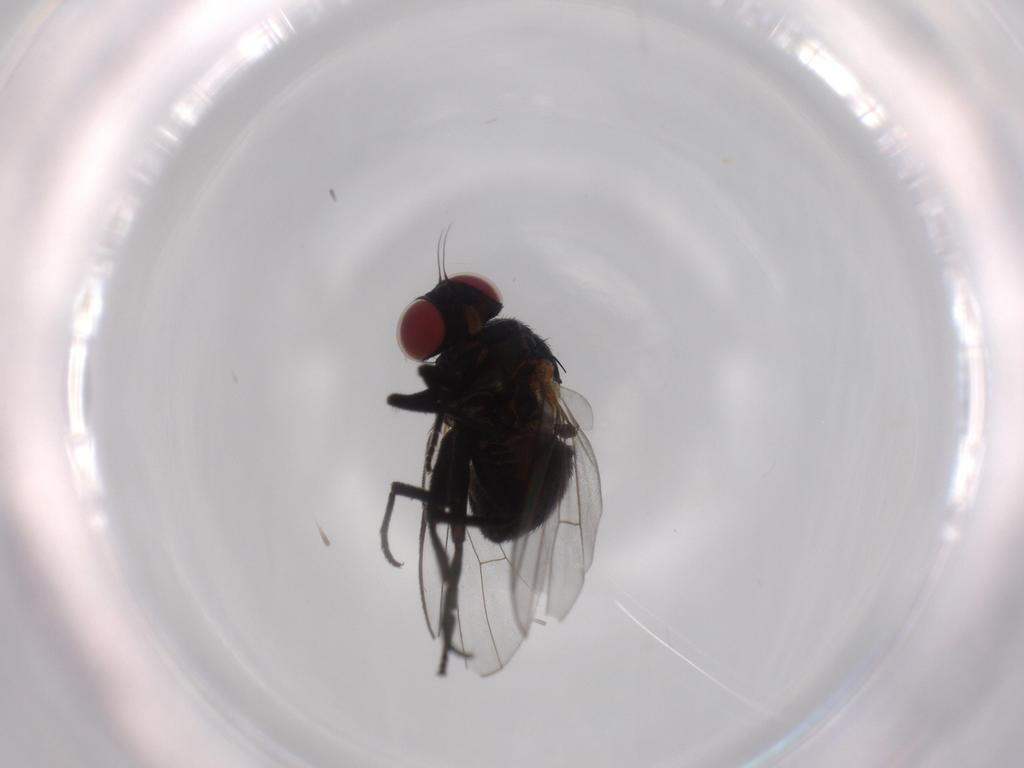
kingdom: Animalia
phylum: Arthropoda
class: Insecta
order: Diptera
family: Agromyzidae
